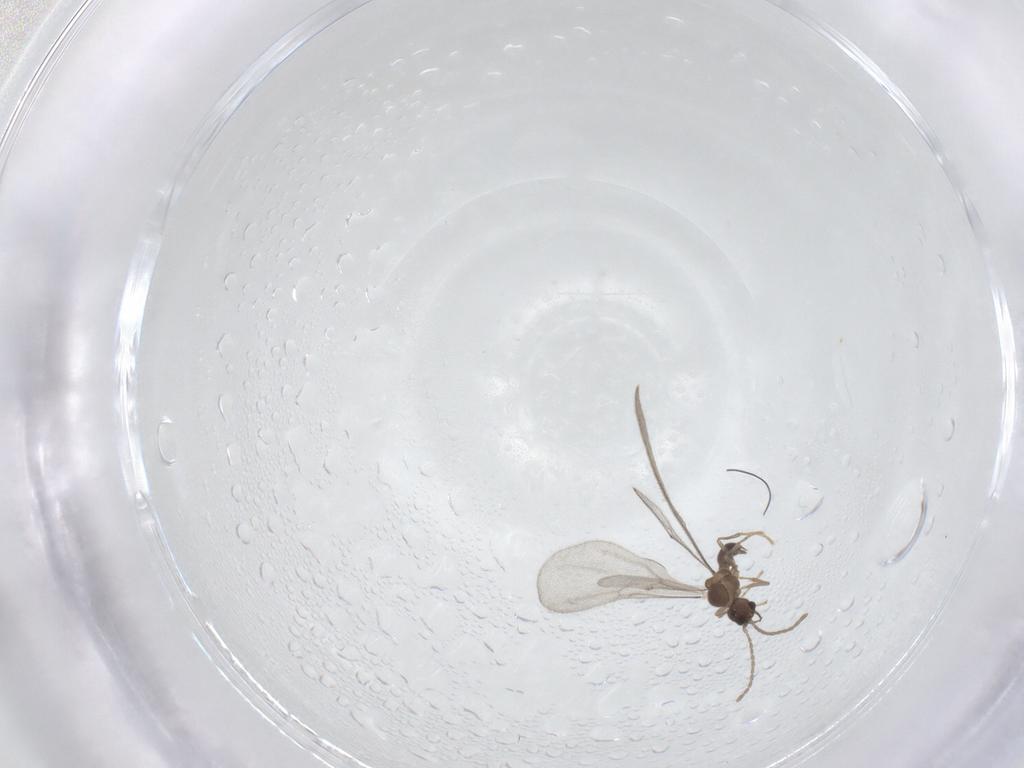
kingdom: Animalia
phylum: Arthropoda
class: Insecta
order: Hymenoptera
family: Formicidae
